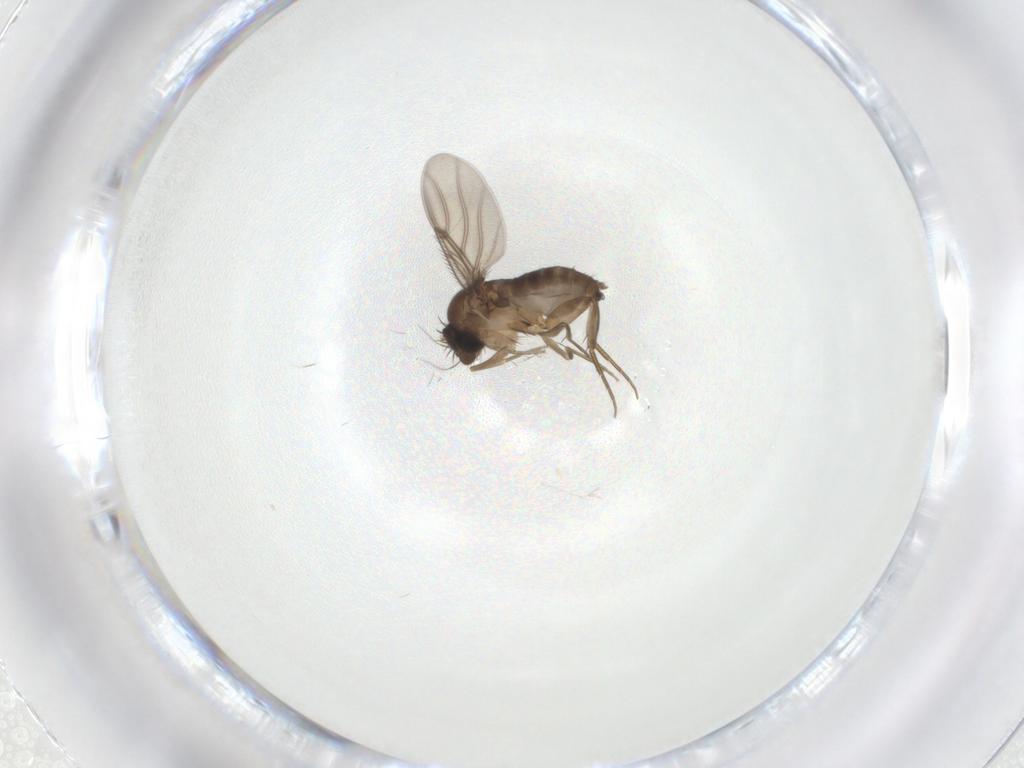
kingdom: Animalia
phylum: Arthropoda
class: Insecta
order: Diptera
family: Phoridae
